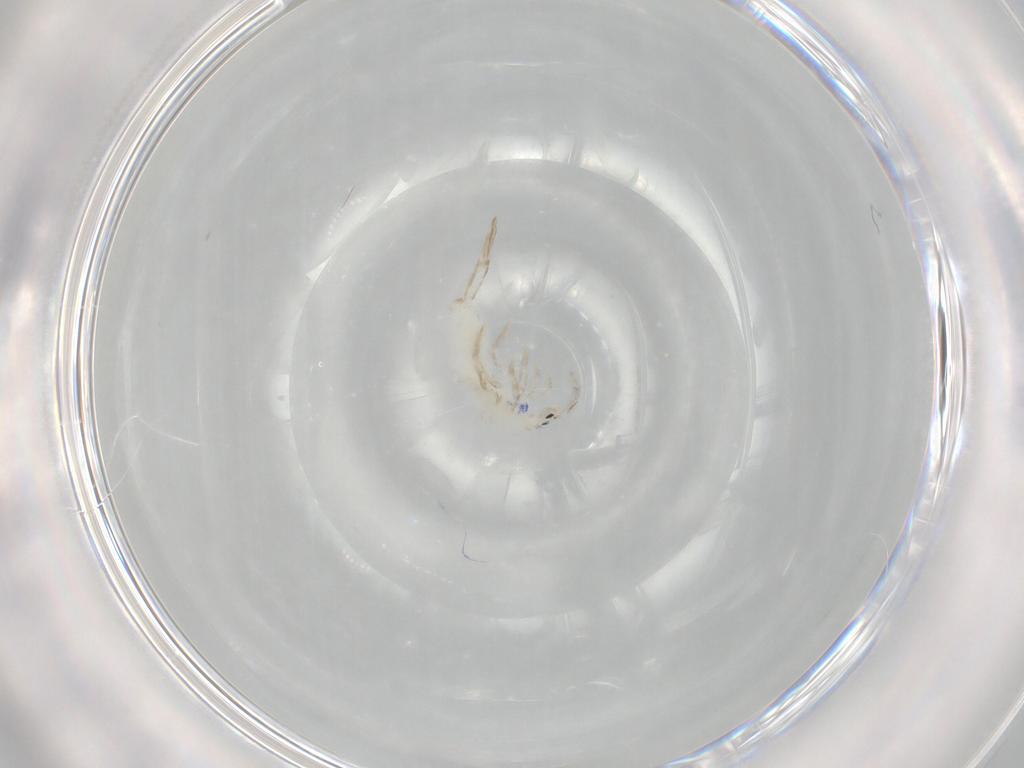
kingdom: Animalia
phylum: Arthropoda
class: Collembola
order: Entomobryomorpha
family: Entomobryidae
